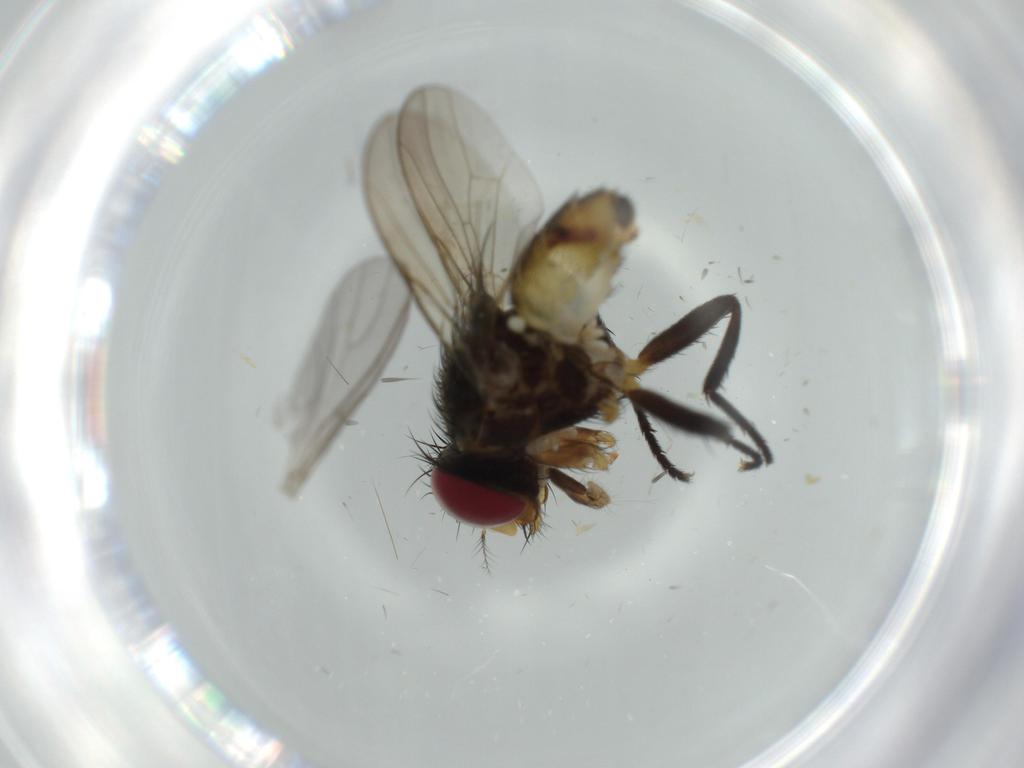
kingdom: Animalia
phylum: Arthropoda
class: Insecta
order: Diptera
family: Anthomyiidae
